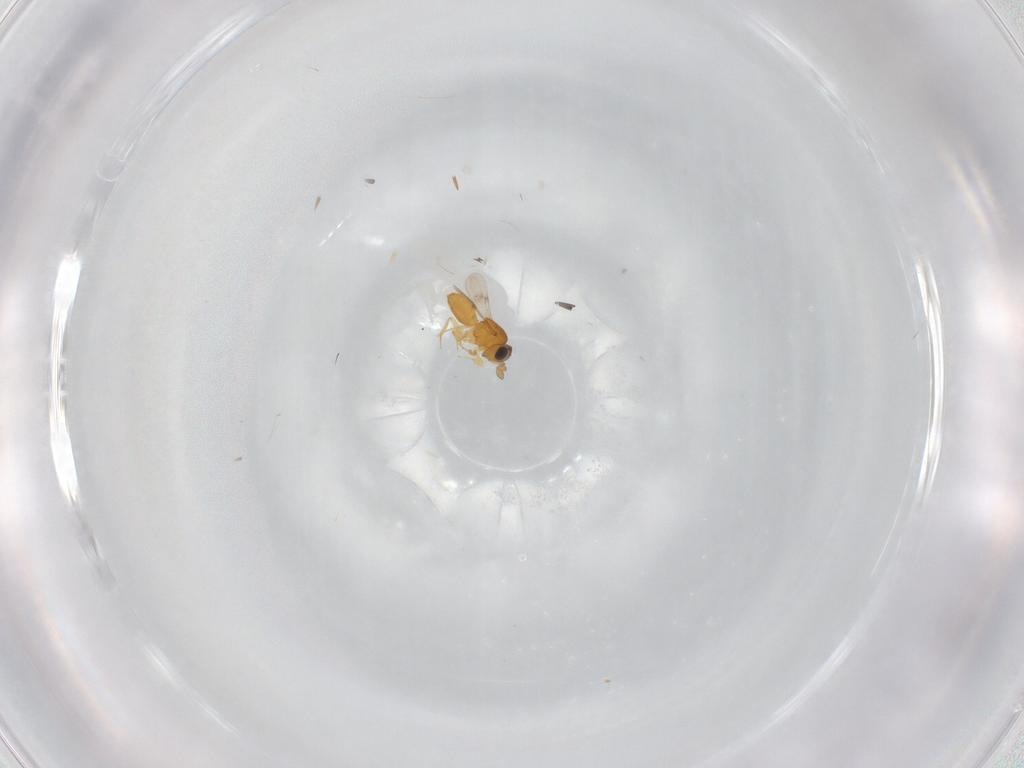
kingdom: Animalia
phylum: Arthropoda
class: Insecta
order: Hymenoptera
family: Scelionidae
